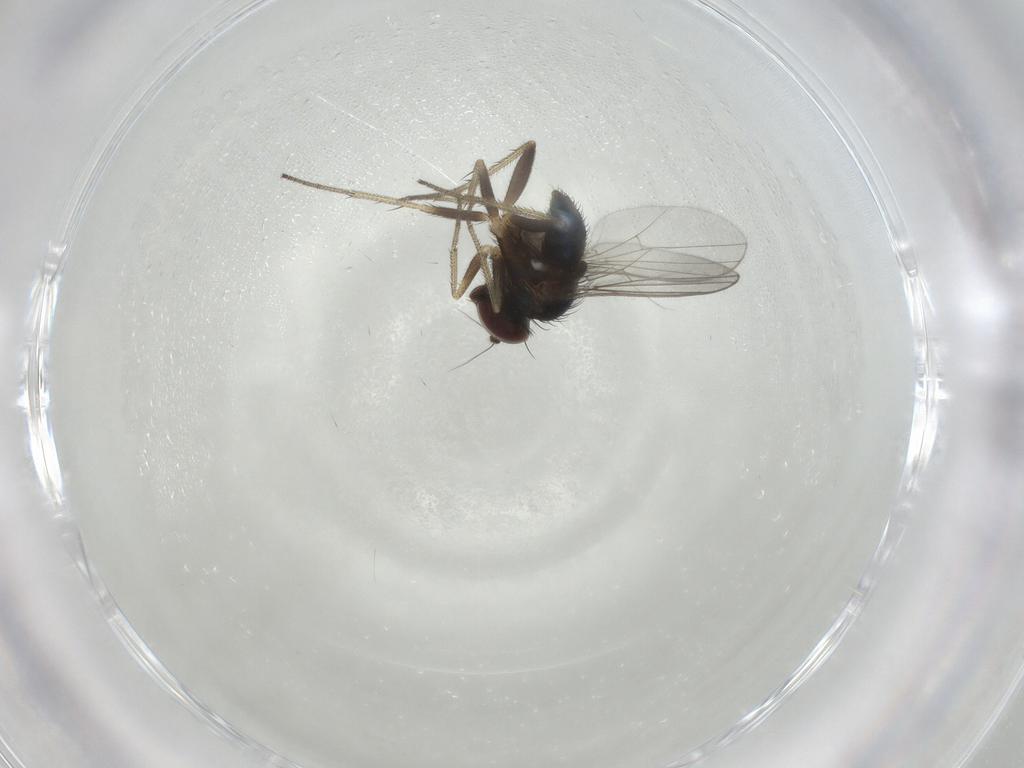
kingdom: Animalia
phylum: Arthropoda
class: Insecta
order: Diptera
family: Dolichopodidae
